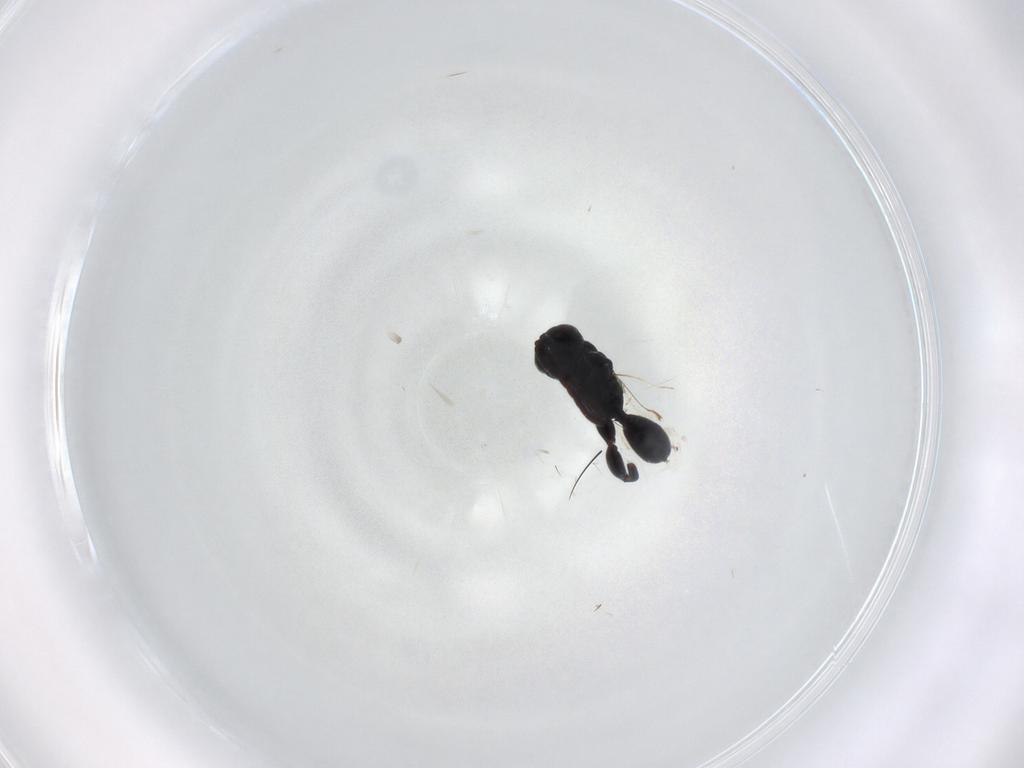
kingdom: Animalia
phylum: Arthropoda
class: Insecta
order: Hymenoptera
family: Chalcididae
